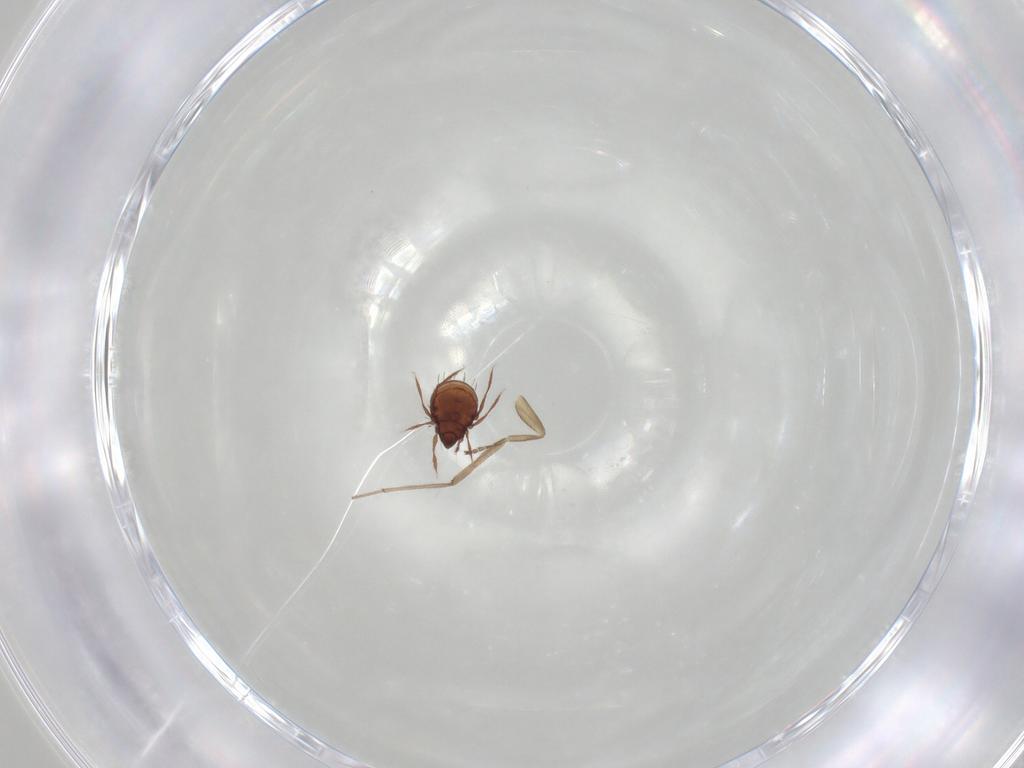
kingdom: Animalia
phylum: Arthropoda
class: Arachnida
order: Sarcoptiformes
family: Caloppiidae
